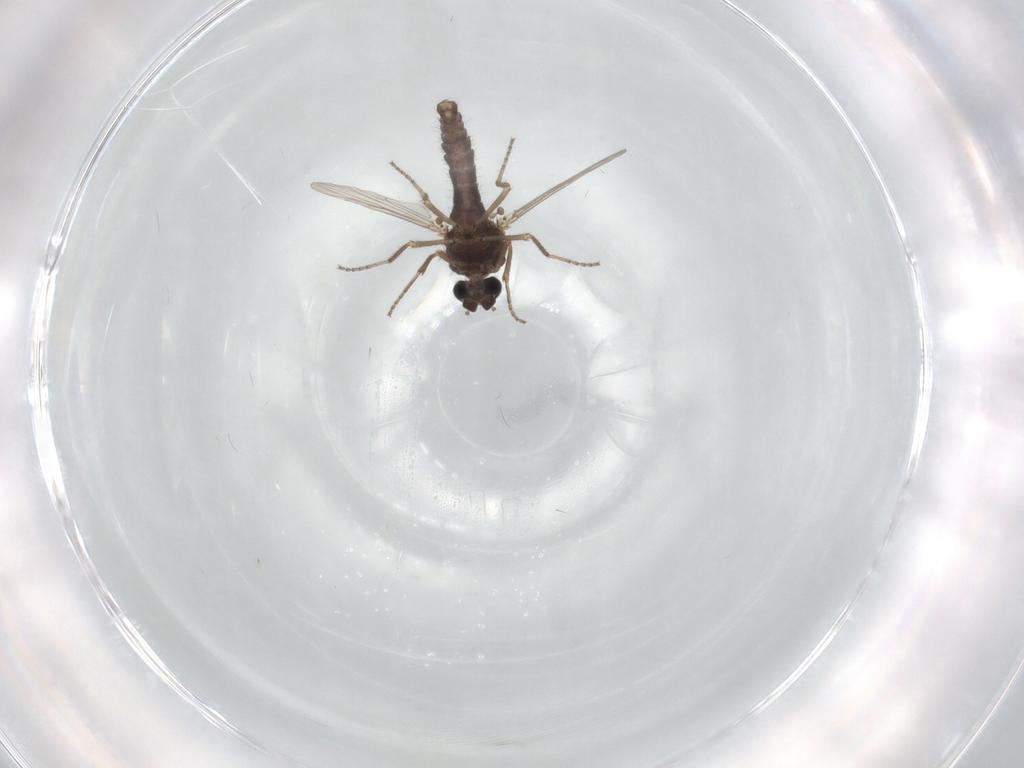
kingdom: Animalia
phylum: Arthropoda
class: Insecta
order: Diptera
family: Ceratopogonidae
